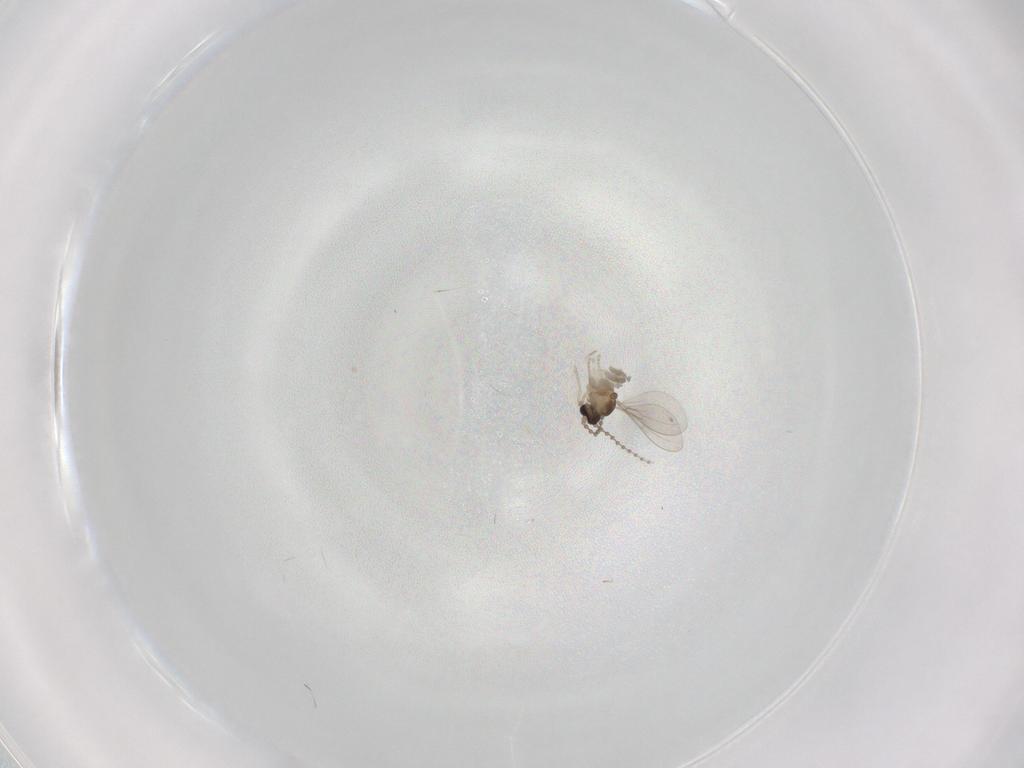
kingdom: Animalia
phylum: Arthropoda
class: Insecta
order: Diptera
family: Cecidomyiidae
